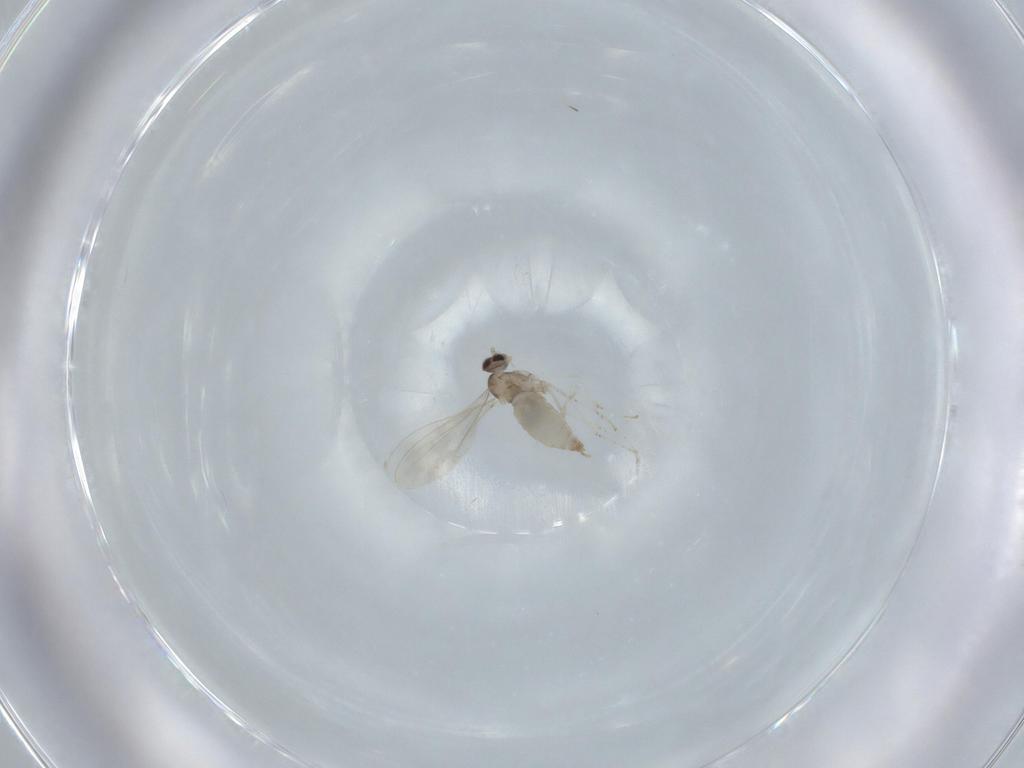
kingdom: Animalia
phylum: Arthropoda
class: Insecta
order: Diptera
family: Cecidomyiidae
